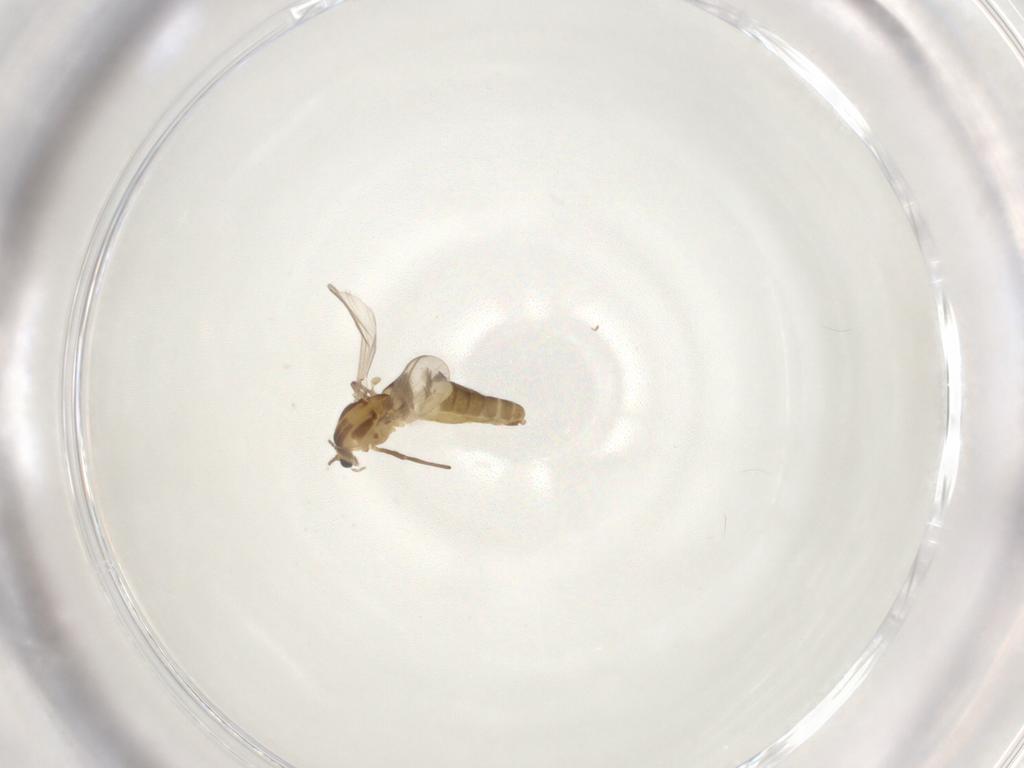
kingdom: Animalia
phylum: Arthropoda
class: Insecta
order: Diptera
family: Chironomidae
